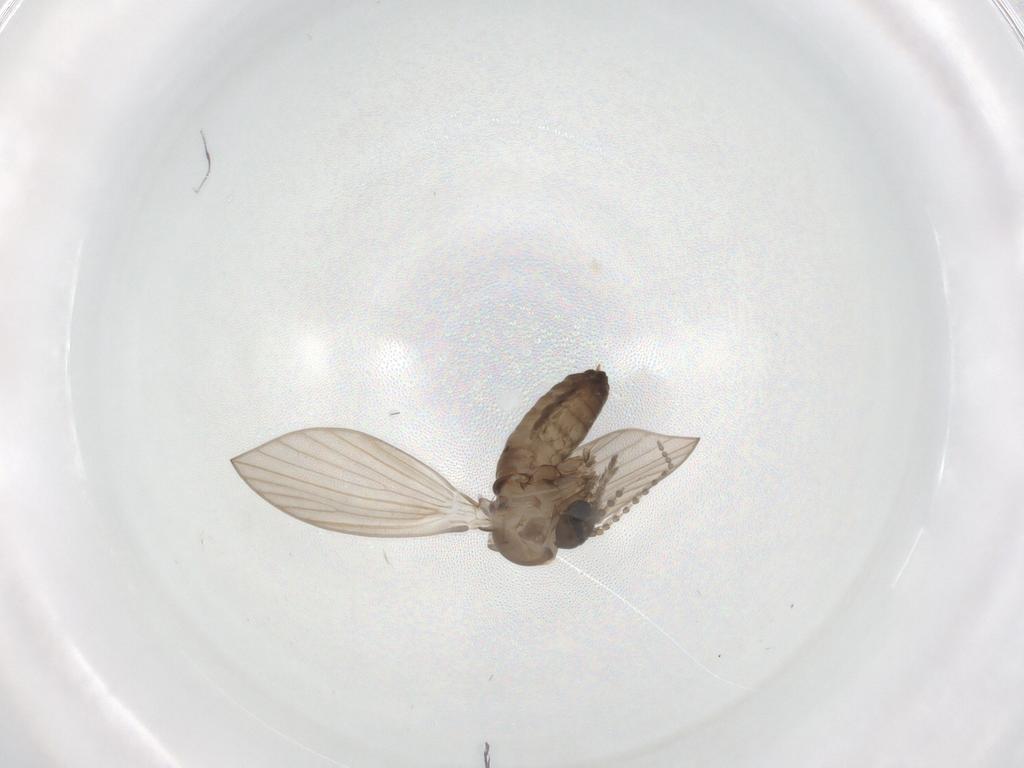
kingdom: Animalia
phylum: Arthropoda
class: Insecta
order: Diptera
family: Psychodidae
